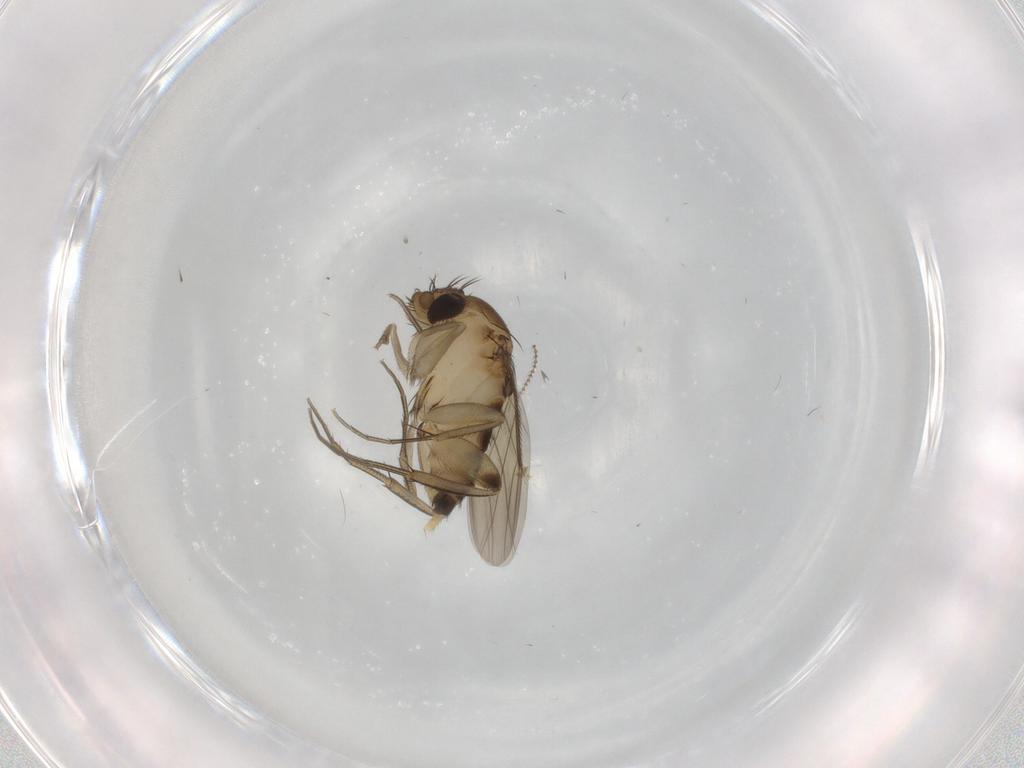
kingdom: Animalia
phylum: Arthropoda
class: Insecta
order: Diptera
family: Phoridae
